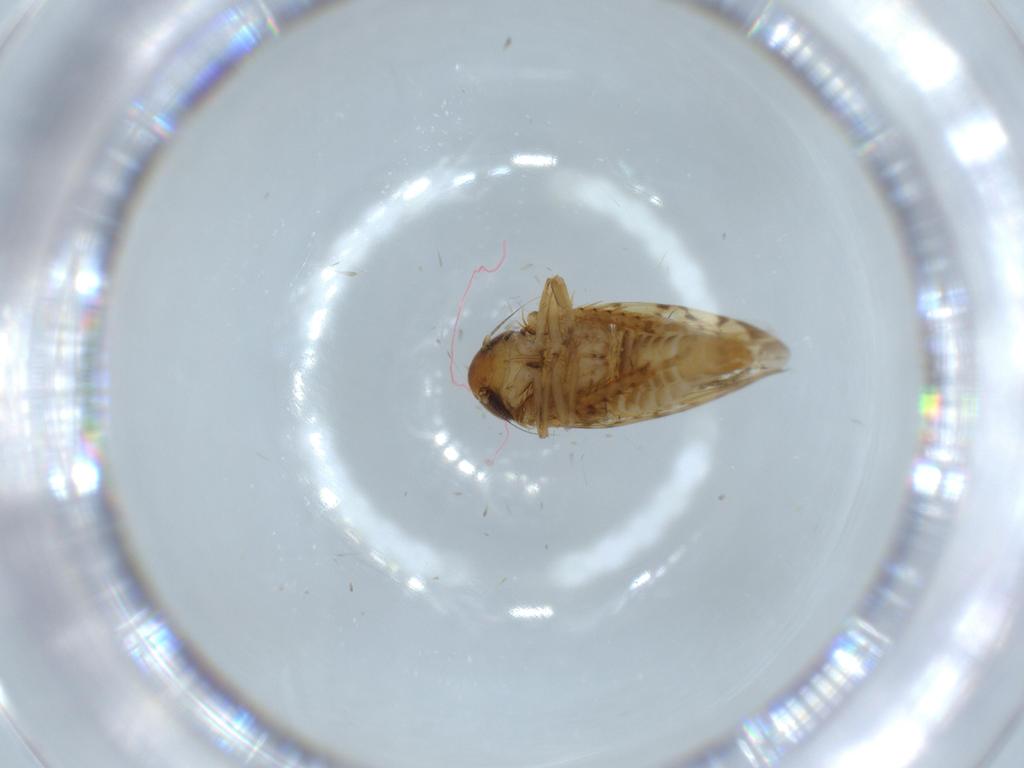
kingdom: Animalia
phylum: Arthropoda
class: Insecta
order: Hemiptera
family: Cicadellidae
